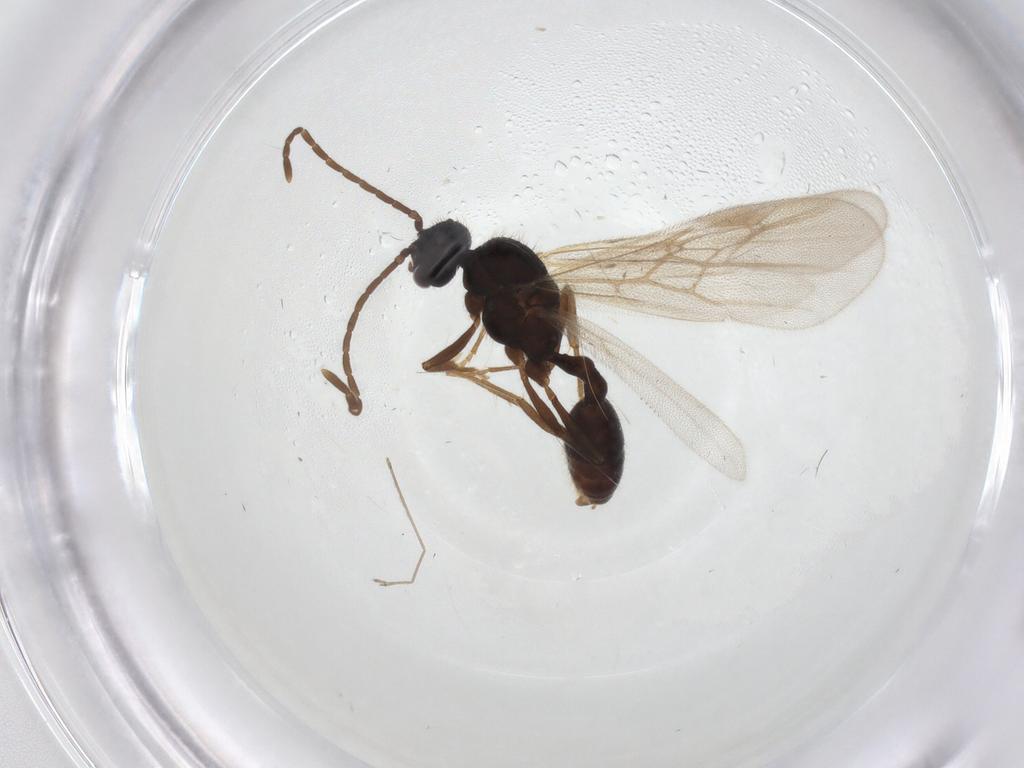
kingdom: Animalia
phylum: Arthropoda
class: Insecta
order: Hymenoptera
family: Formicidae
